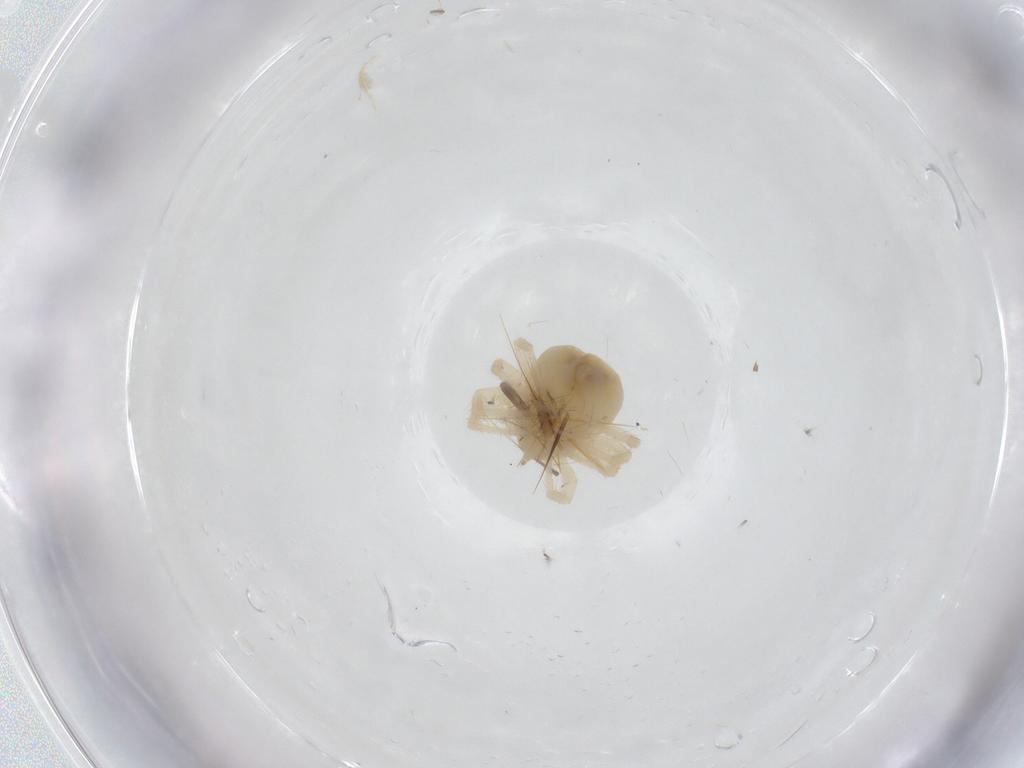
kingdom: Animalia
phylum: Arthropoda
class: Arachnida
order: Trombidiformes
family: Anystidae
